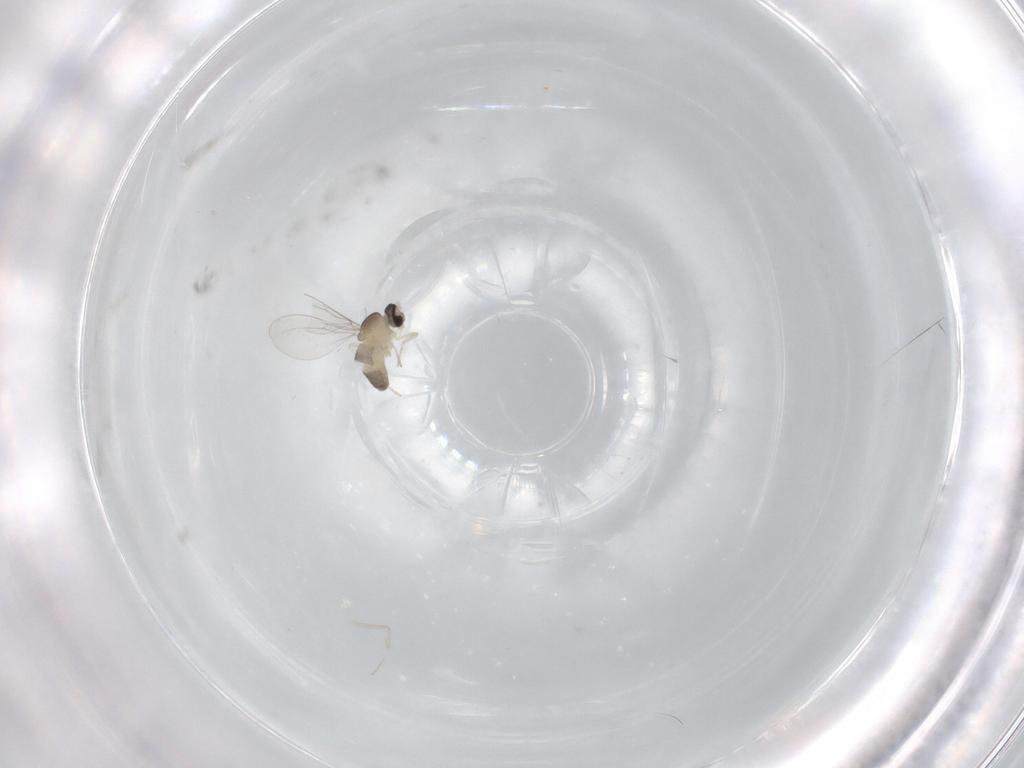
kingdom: Animalia
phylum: Arthropoda
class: Insecta
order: Diptera
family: Cecidomyiidae
